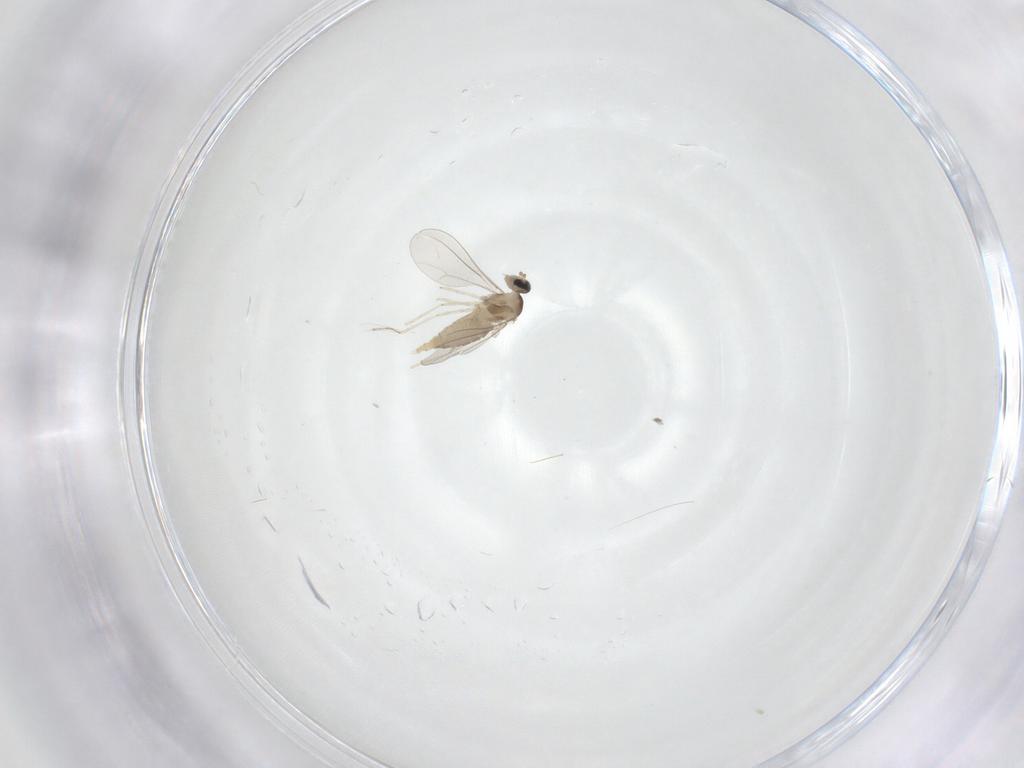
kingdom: Animalia
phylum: Arthropoda
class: Insecta
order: Diptera
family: Cecidomyiidae
